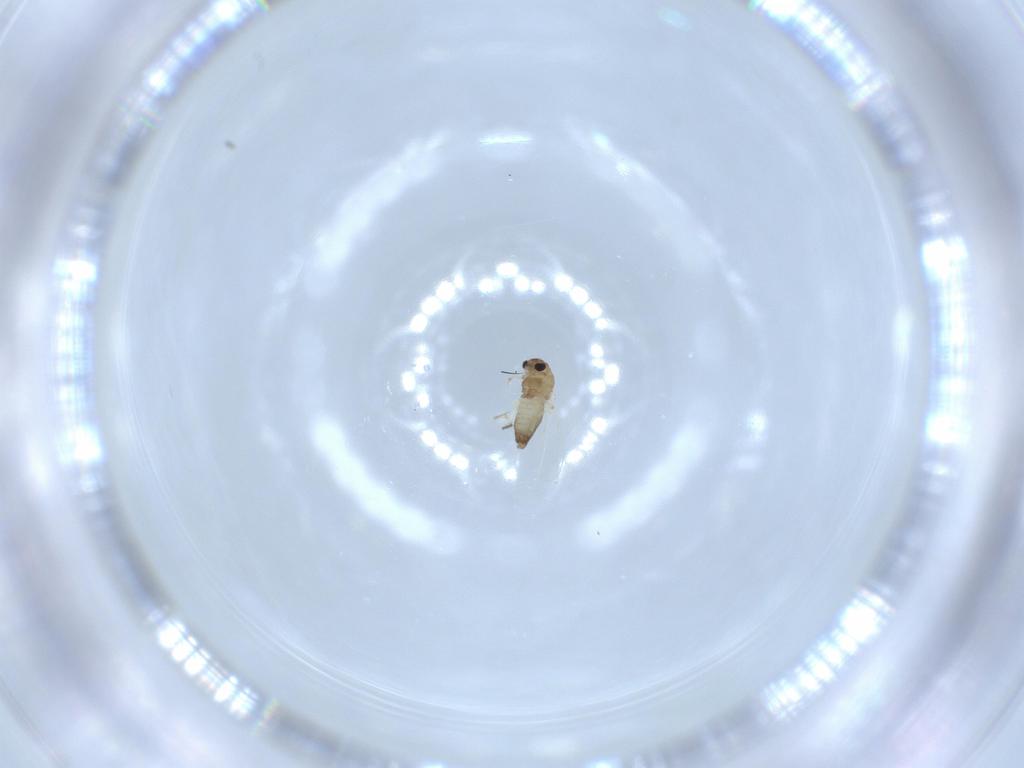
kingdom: Animalia
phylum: Arthropoda
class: Insecta
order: Diptera
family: Chironomidae
